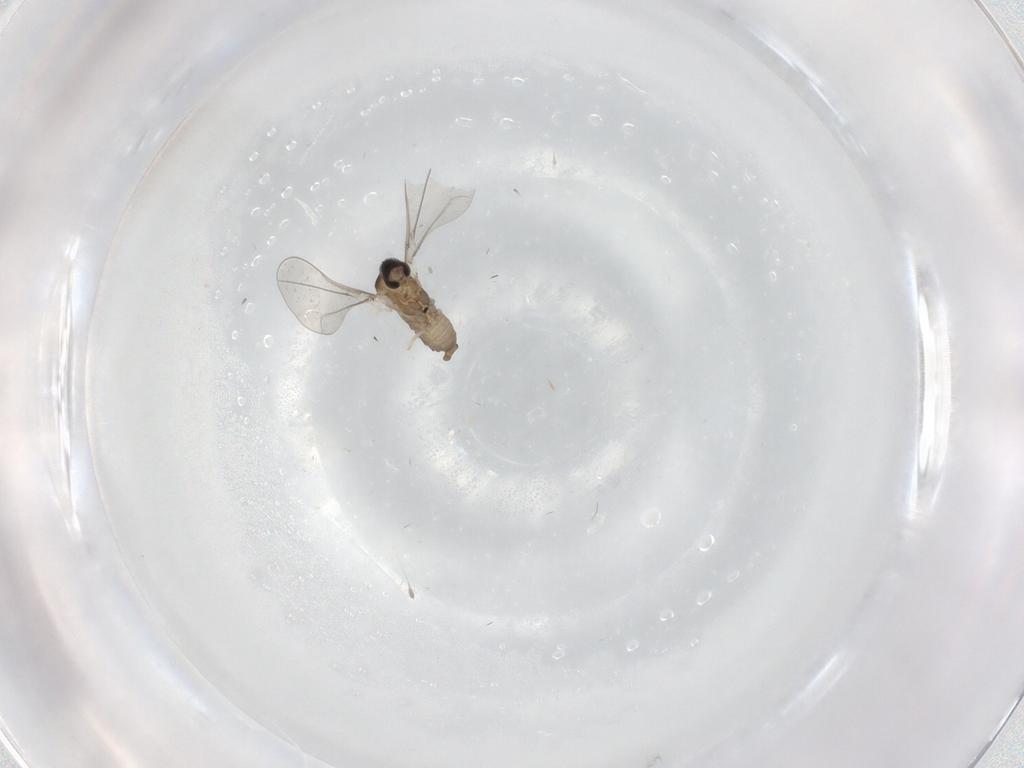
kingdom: Animalia
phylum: Arthropoda
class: Insecta
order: Diptera
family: Cecidomyiidae
